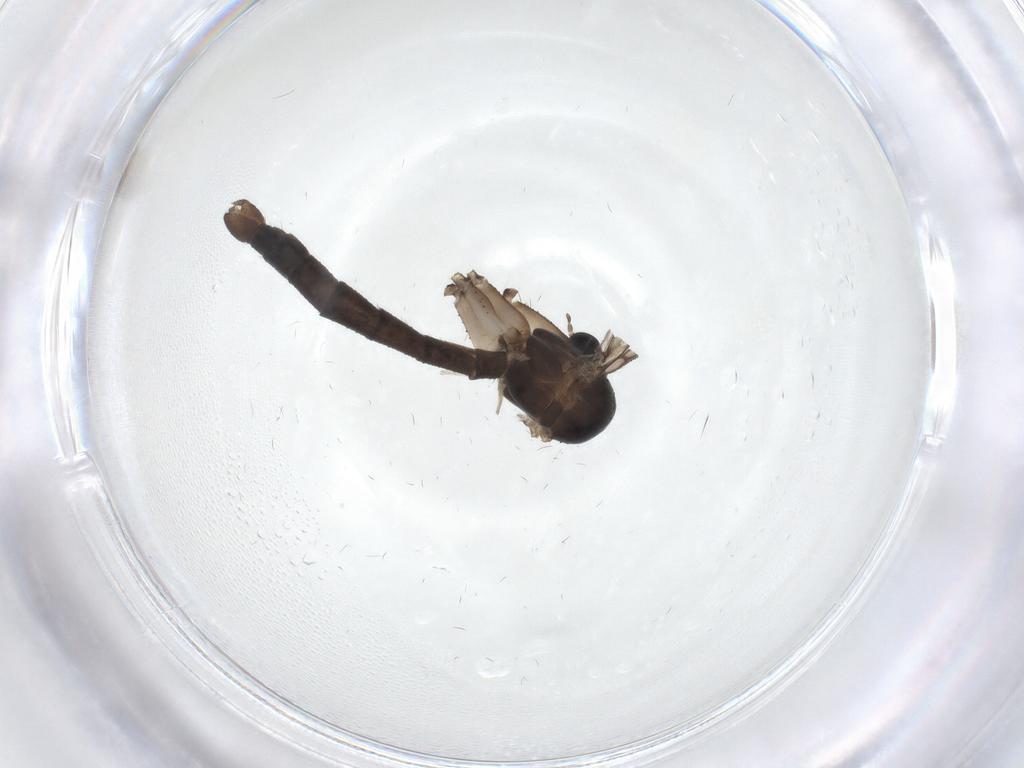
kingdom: Animalia
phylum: Arthropoda
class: Insecta
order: Diptera
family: Mycetophilidae
